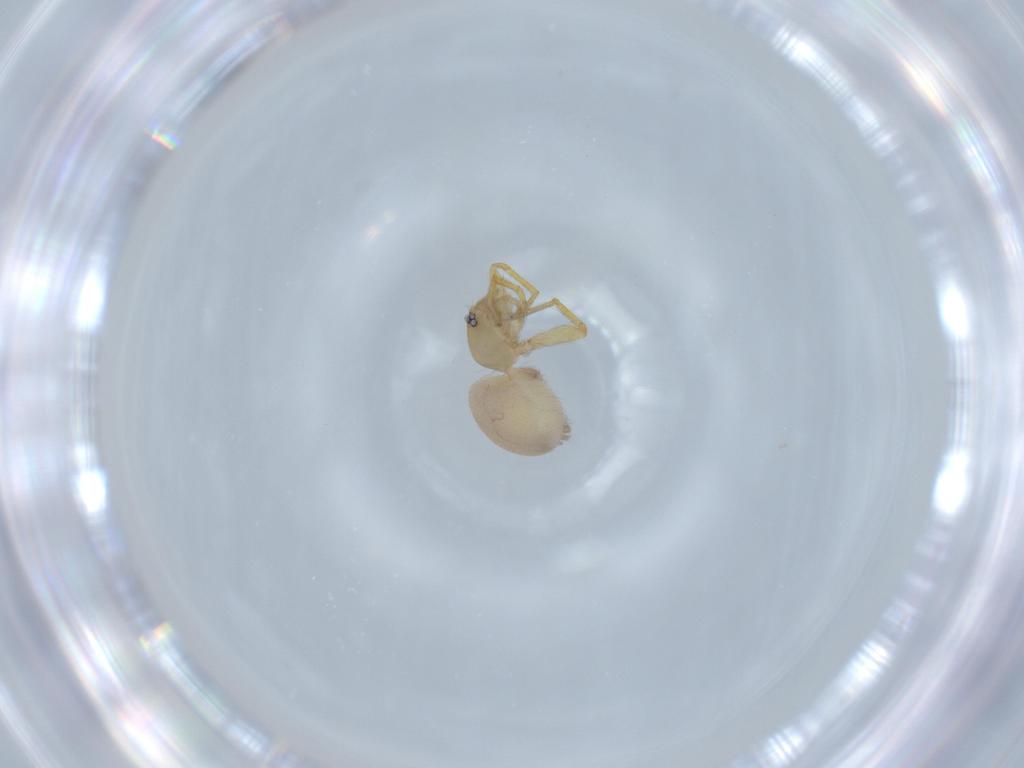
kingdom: Animalia
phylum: Arthropoda
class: Arachnida
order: Araneae
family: Oonopidae
